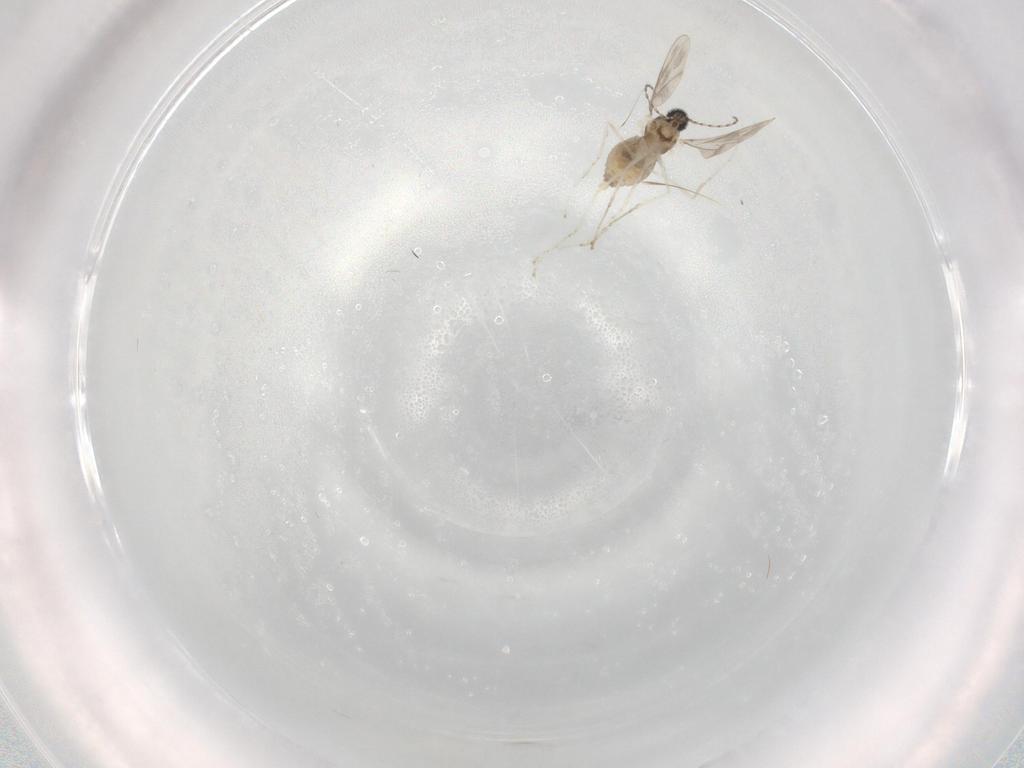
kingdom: Animalia
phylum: Arthropoda
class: Insecta
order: Diptera
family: Cecidomyiidae
